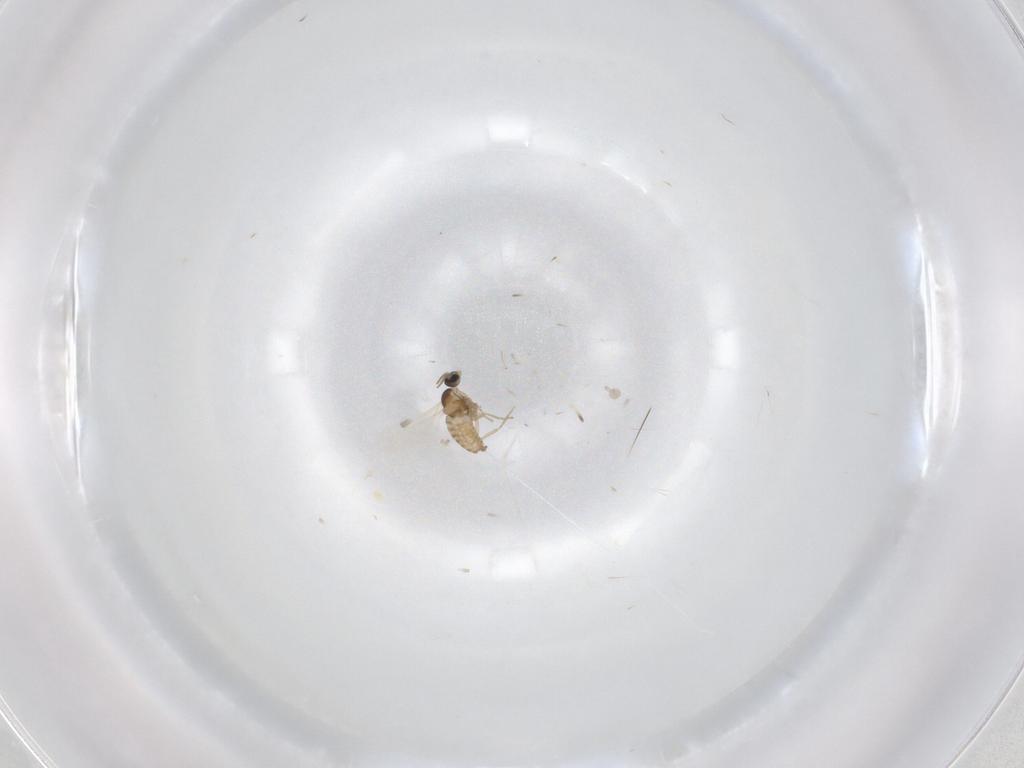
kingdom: Animalia
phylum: Arthropoda
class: Insecta
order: Diptera
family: Cecidomyiidae
